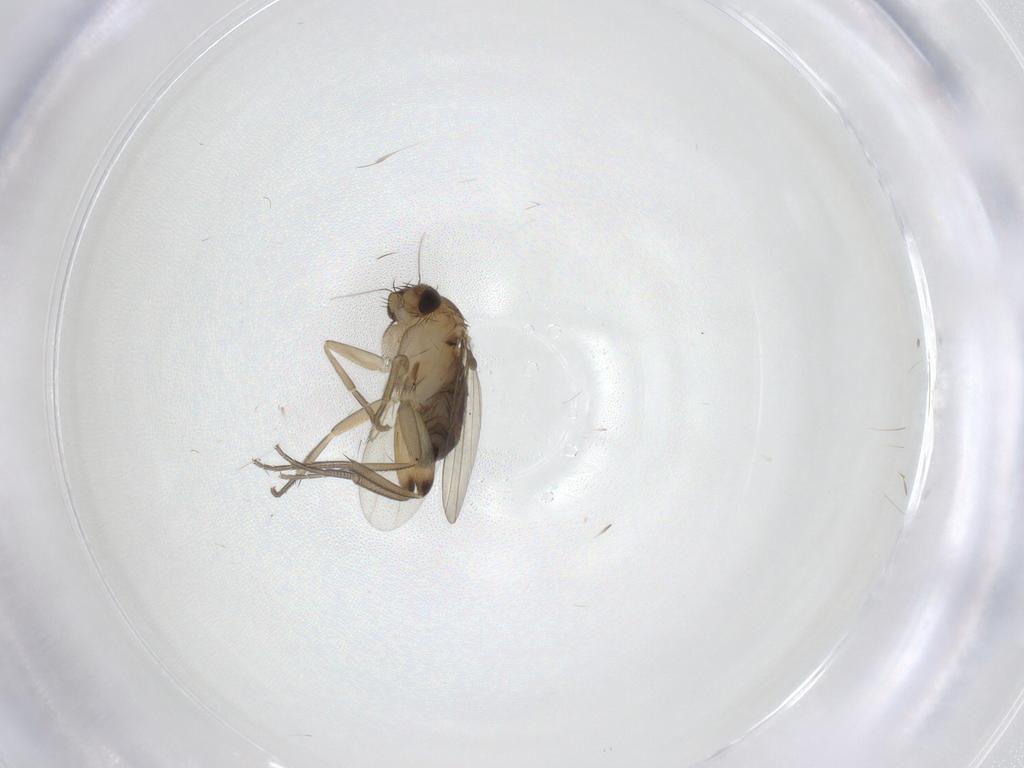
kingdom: Animalia
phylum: Arthropoda
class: Insecta
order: Diptera
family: Phoridae
